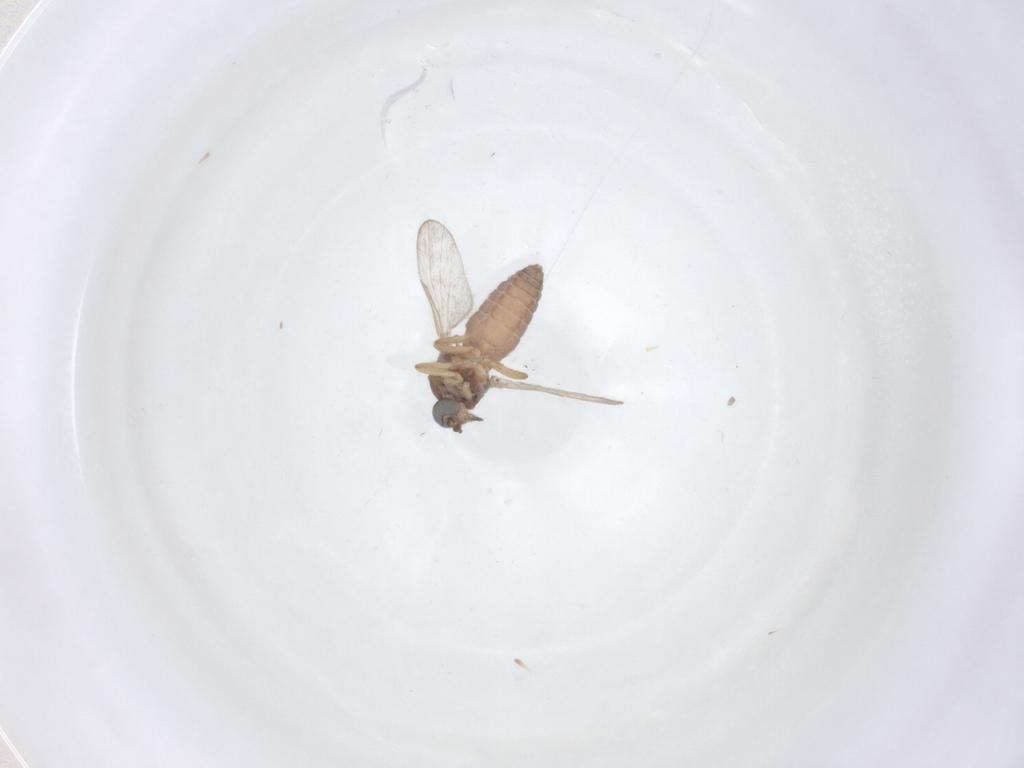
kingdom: Animalia
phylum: Arthropoda
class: Insecta
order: Diptera
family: Ceratopogonidae
